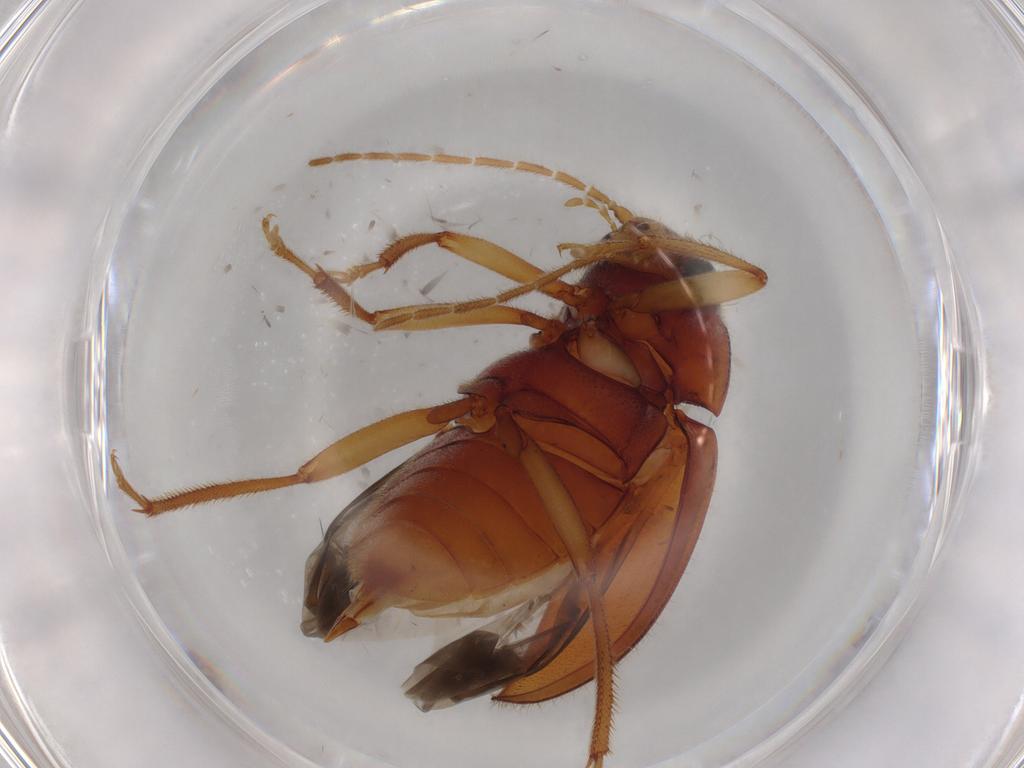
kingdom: Animalia
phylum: Arthropoda
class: Insecta
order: Coleoptera
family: Ptilodactylidae
